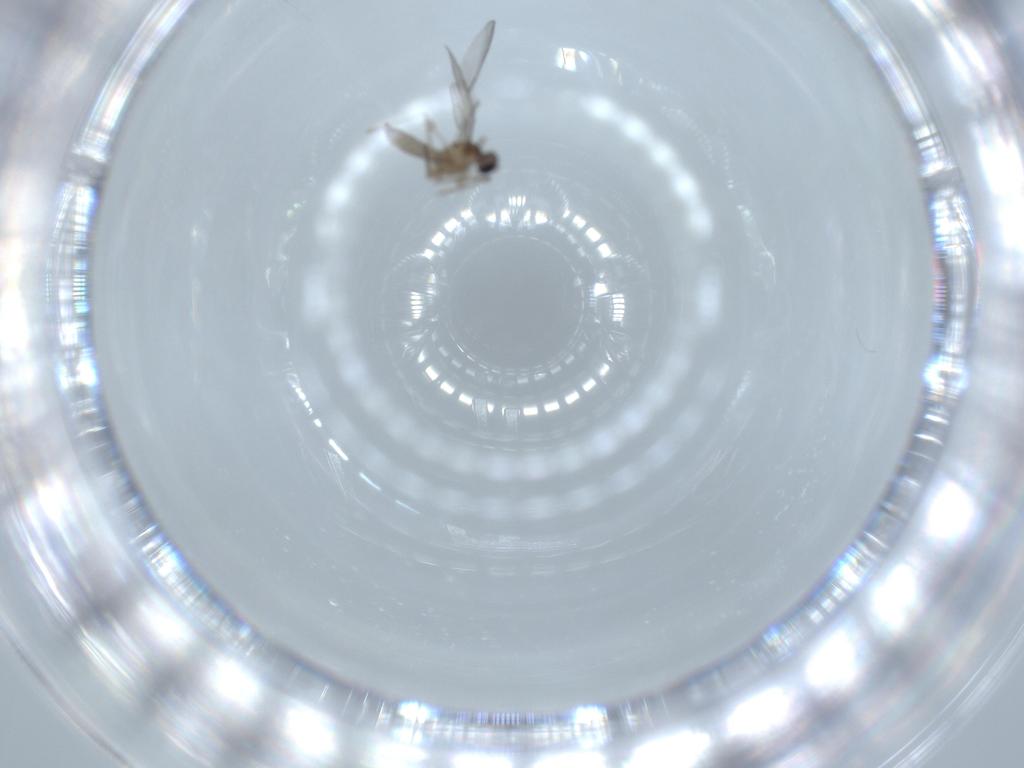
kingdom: Animalia
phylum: Arthropoda
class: Insecta
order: Diptera
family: Cecidomyiidae
